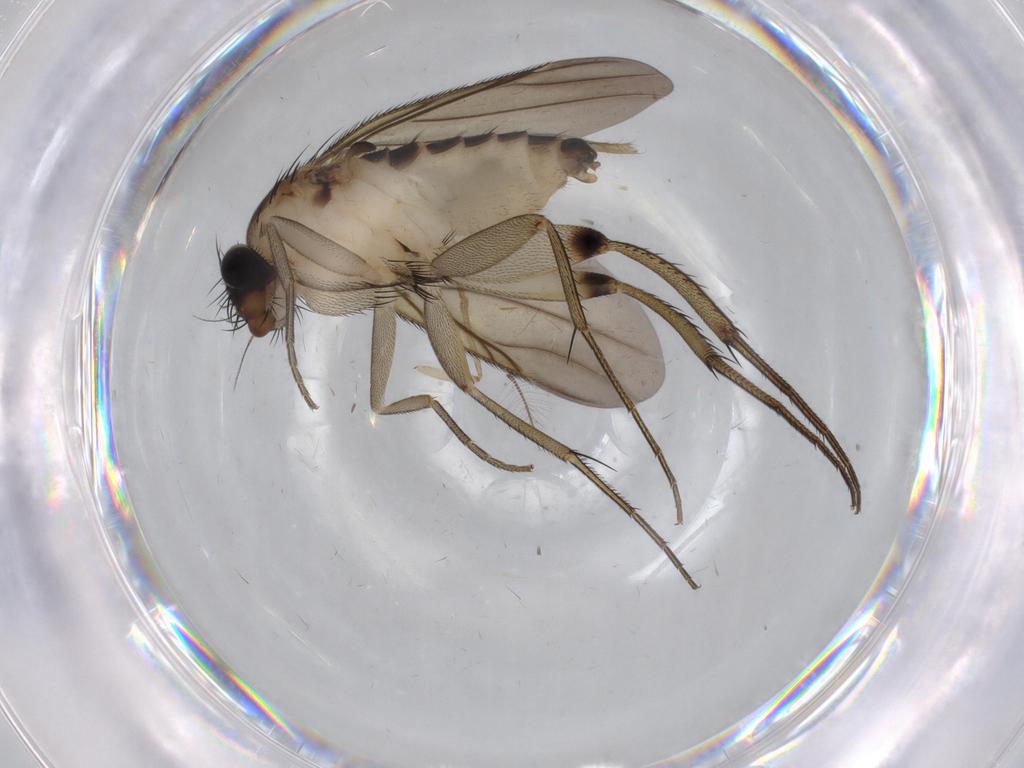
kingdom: Animalia
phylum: Arthropoda
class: Insecta
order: Diptera
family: Phoridae
